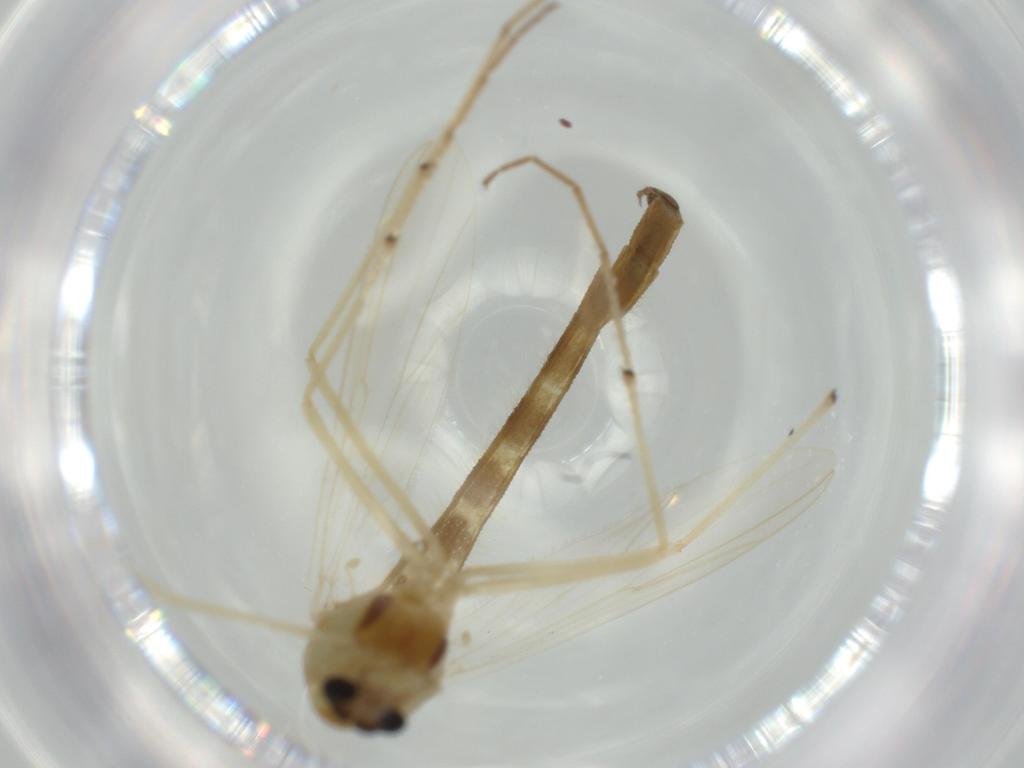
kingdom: Animalia
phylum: Arthropoda
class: Insecta
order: Diptera
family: Chironomidae
